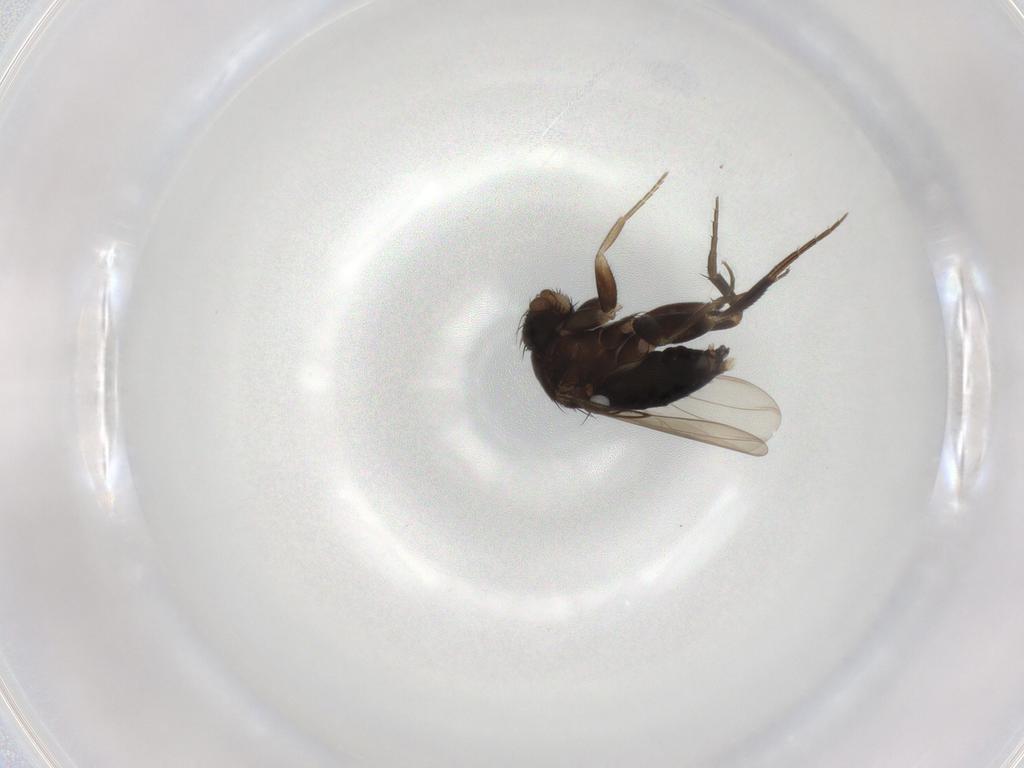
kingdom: Animalia
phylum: Arthropoda
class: Insecta
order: Diptera
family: Phoridae
